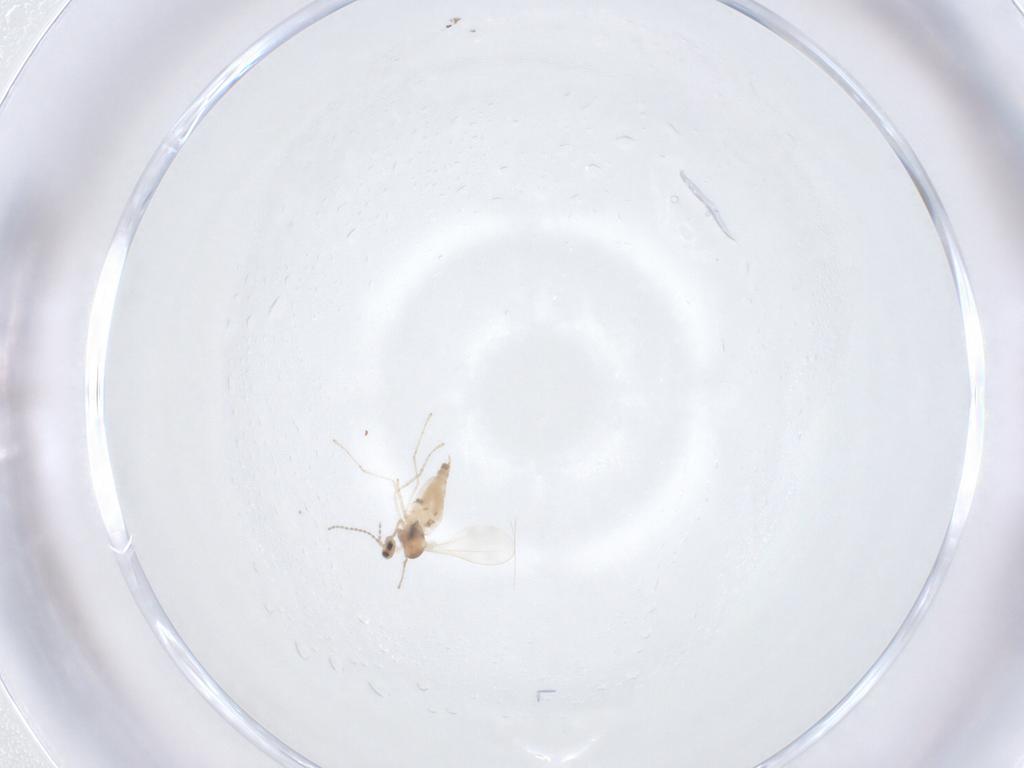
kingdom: Animalia
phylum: Arthropoda
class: Insecta
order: Diptera
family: Cecidomyiidae
